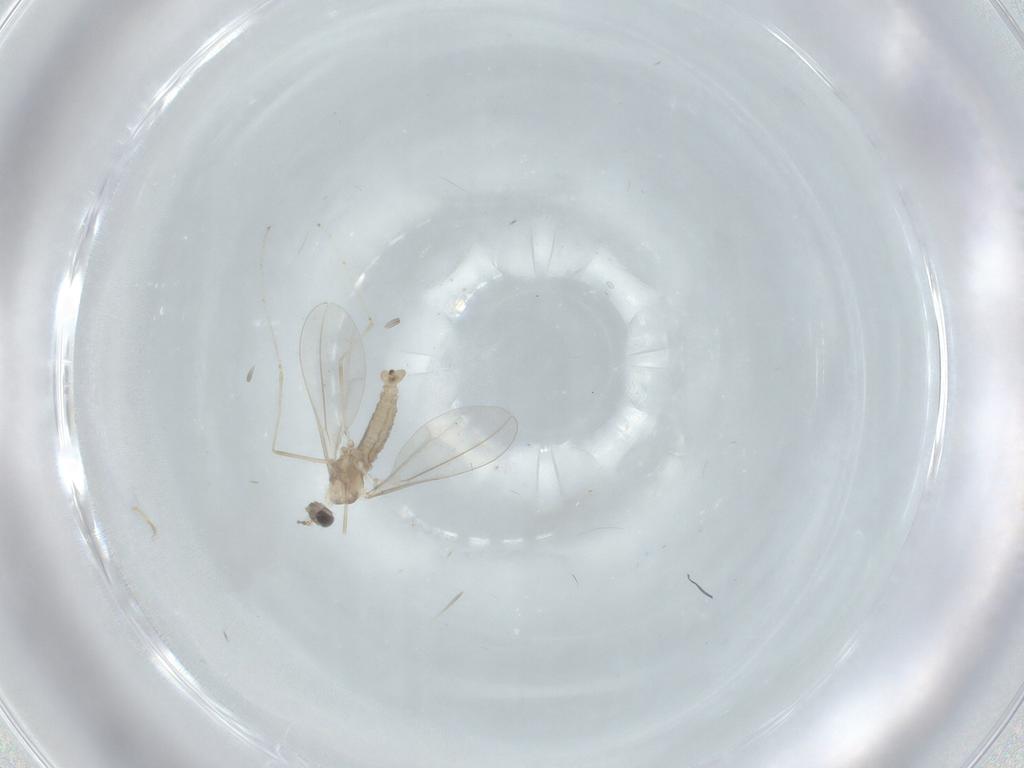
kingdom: Animalia
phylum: Arthropoda
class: Insecta
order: Diptera
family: Cecidomyiidae
